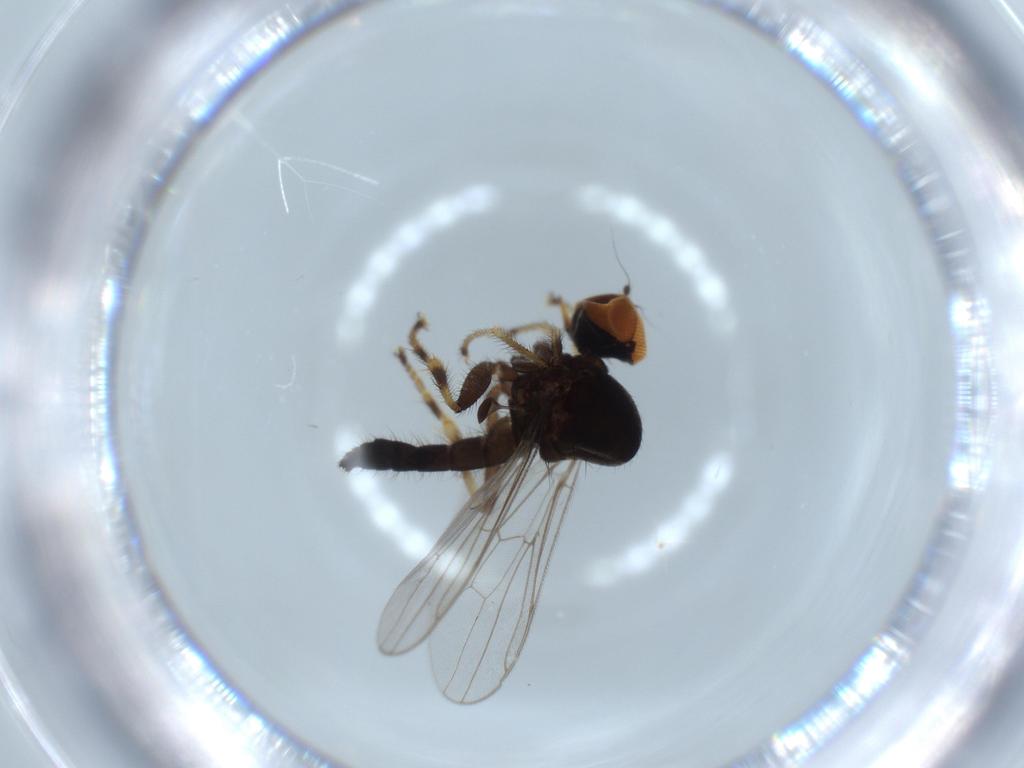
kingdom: Animalia
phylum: Arthropoda
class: Insecta
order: Diptera
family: Hybotidae
